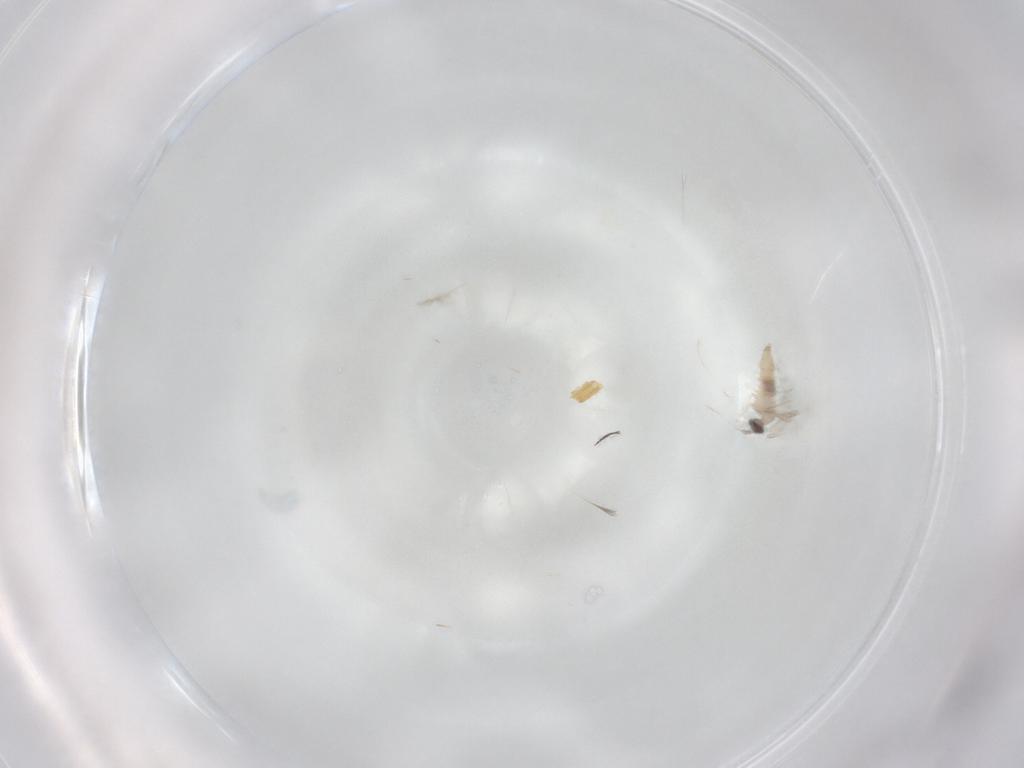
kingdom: Animalia
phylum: Arthropoda
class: Insecta
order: Diptera
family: Cecidomyiidae
